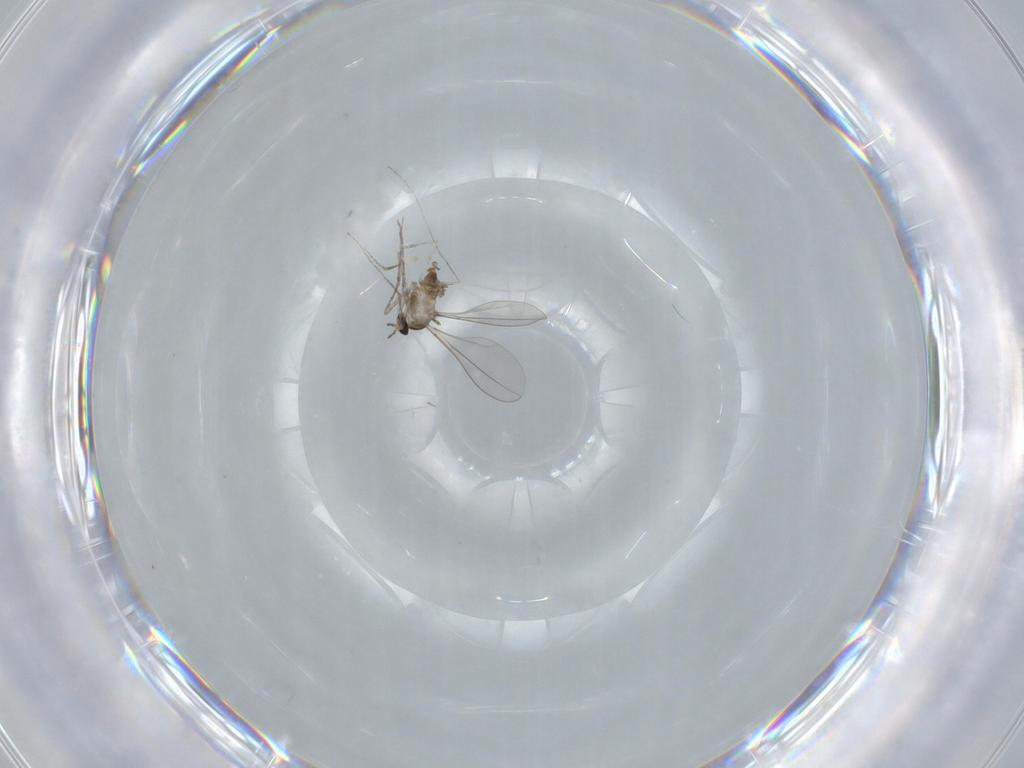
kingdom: Animalia
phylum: Arthropoda
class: Insecta
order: Diptera
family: Cecidomyiidae
